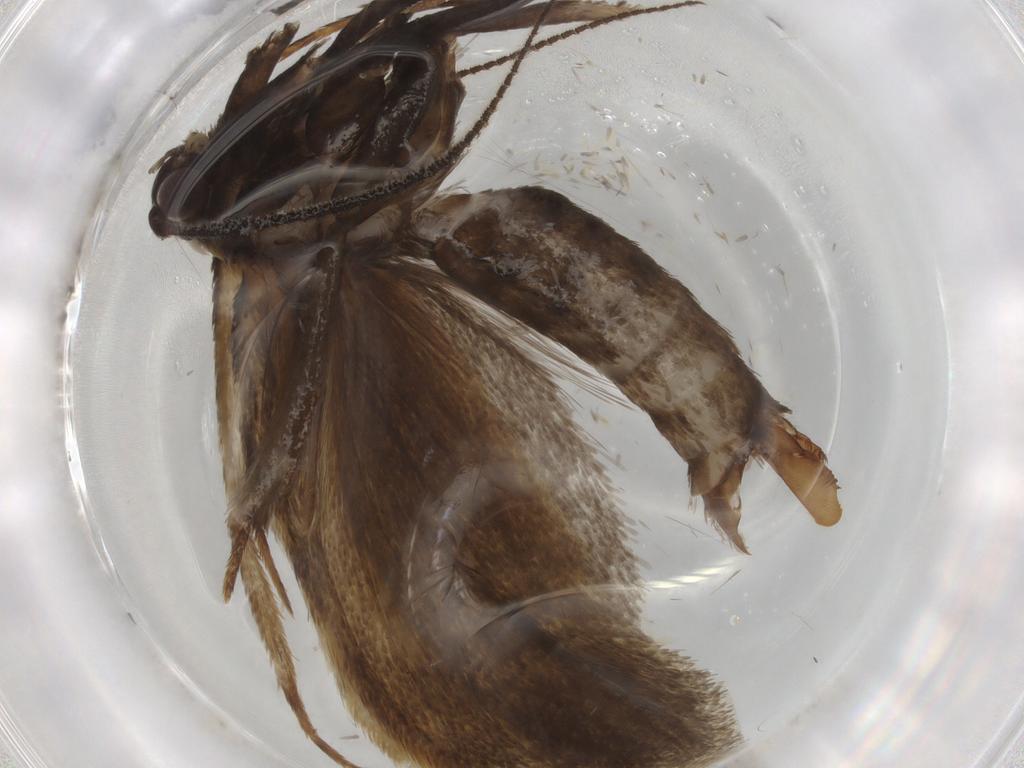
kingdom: Animalia
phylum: Arthropoda
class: Insecta
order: Lepidoptera
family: Crambidae
